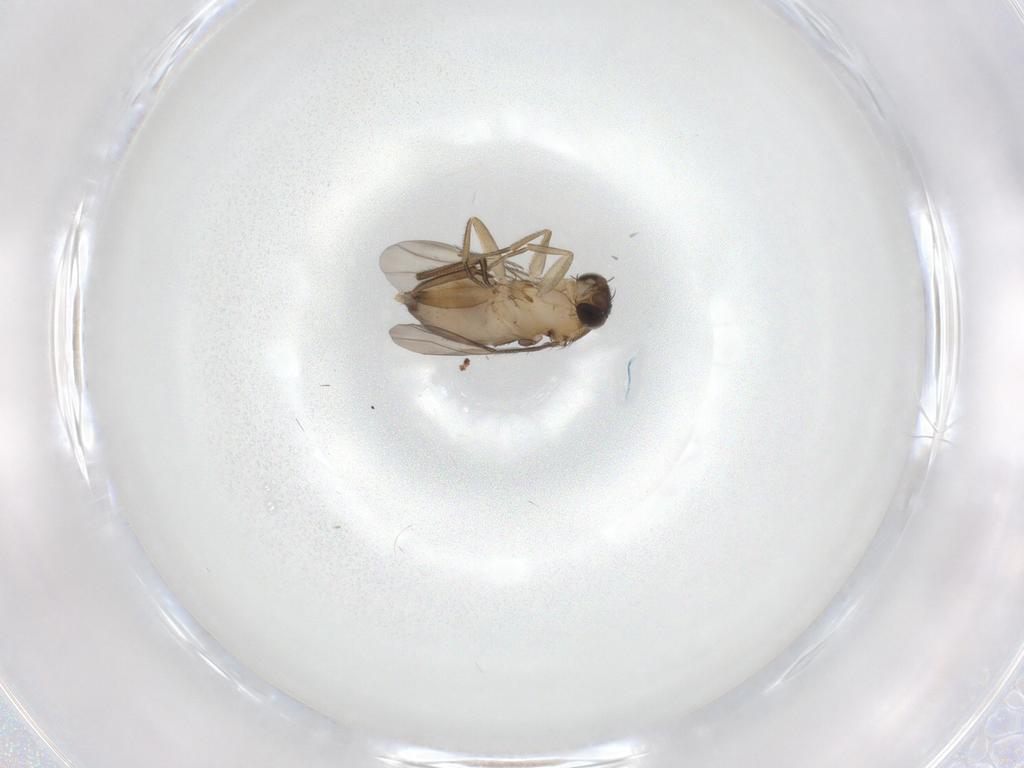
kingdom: Animalia
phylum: Arthropoda
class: Insecta
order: Diptera
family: Phoridae
